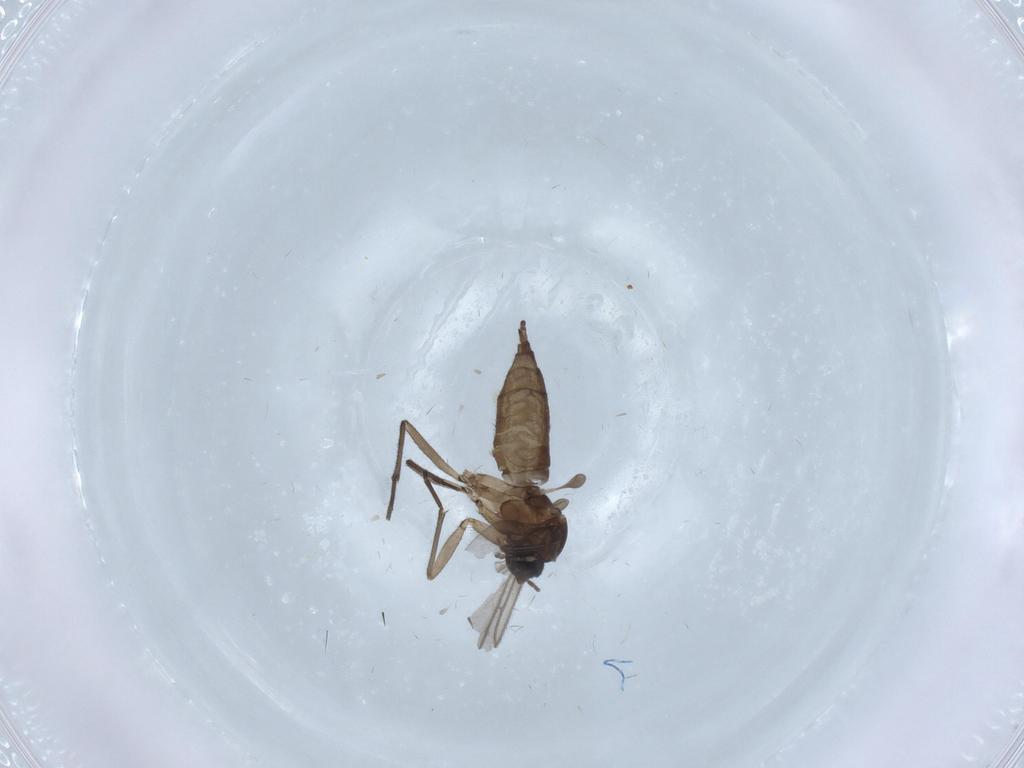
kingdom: Animalia
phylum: Arthropoda
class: Insecta
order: Diptera
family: Sciaridae
